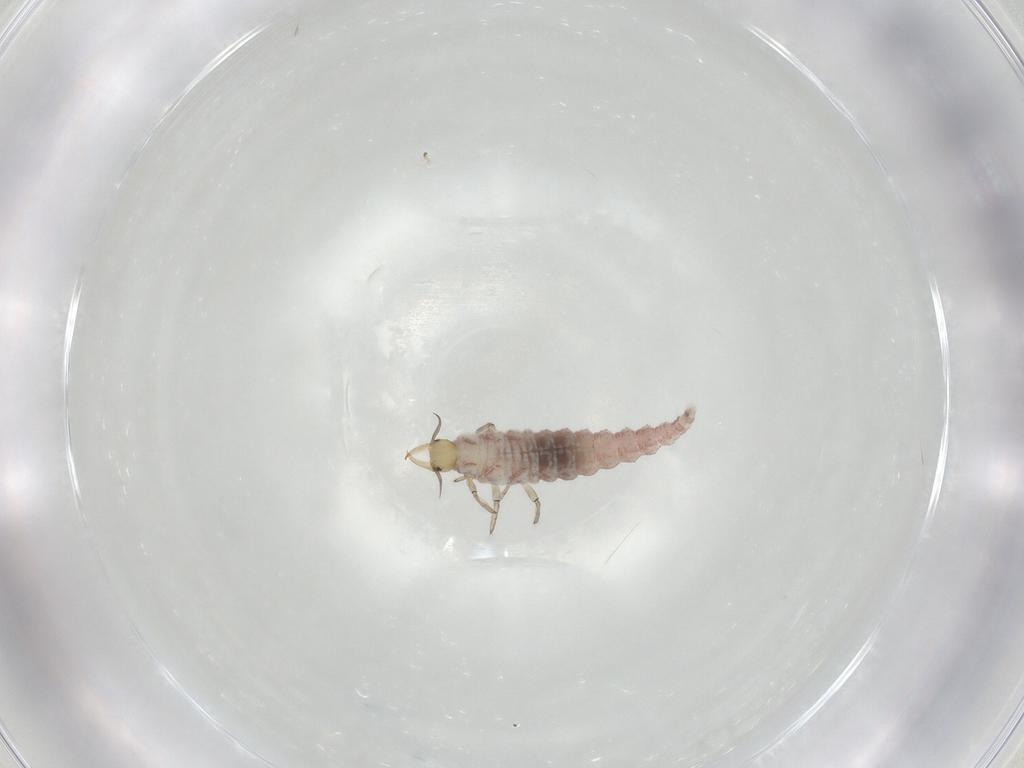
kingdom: Animalia
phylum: Arthropoda
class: Insecta
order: Neuroptera
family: Hemerobiidae
